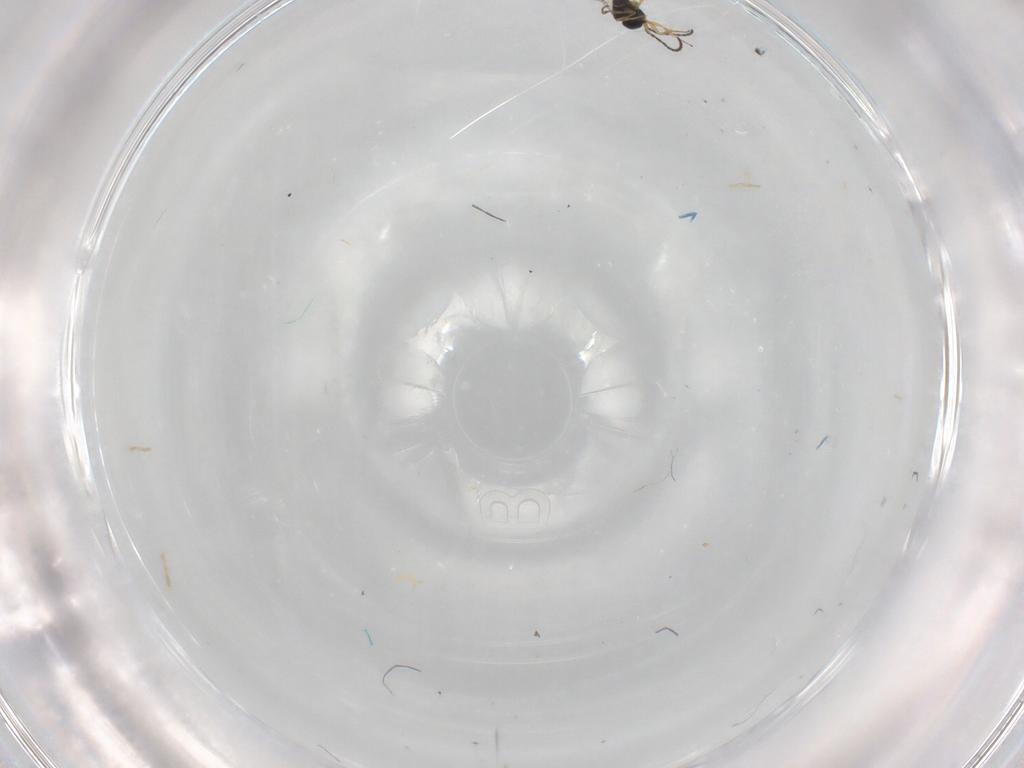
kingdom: Animalia
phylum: Arthropoda
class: Insecta
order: Hymenoptera
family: Scelionidae
